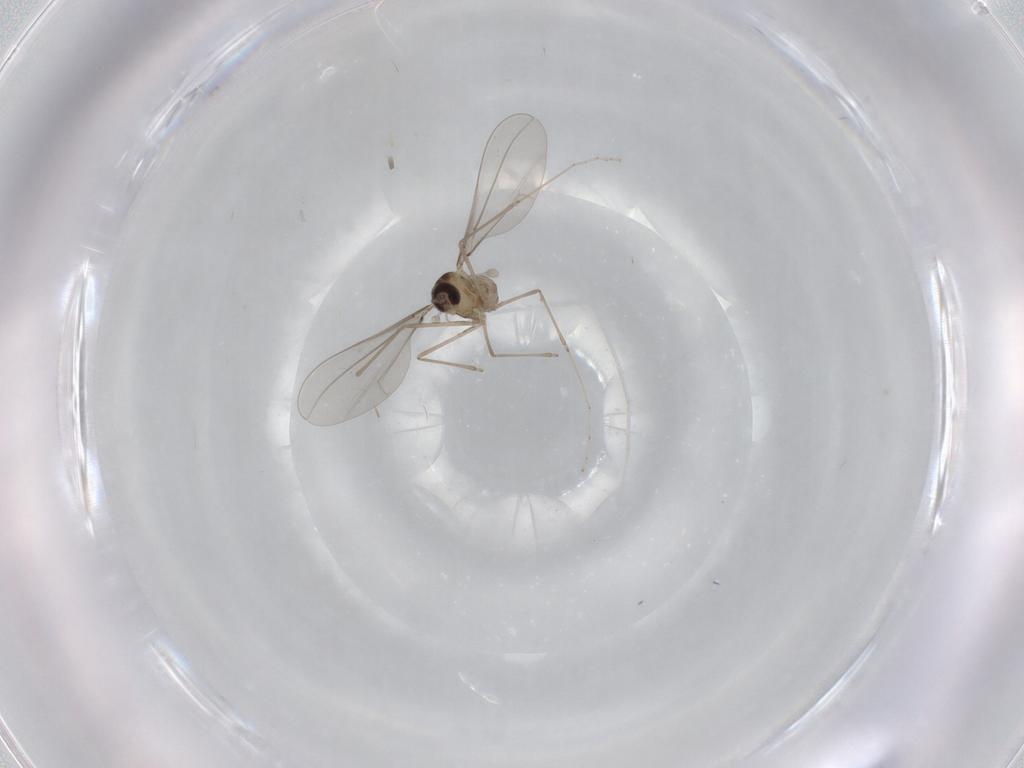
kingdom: Animalia
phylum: Arthropoda
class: Insecta
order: Diptera
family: Cecidomyiidae
